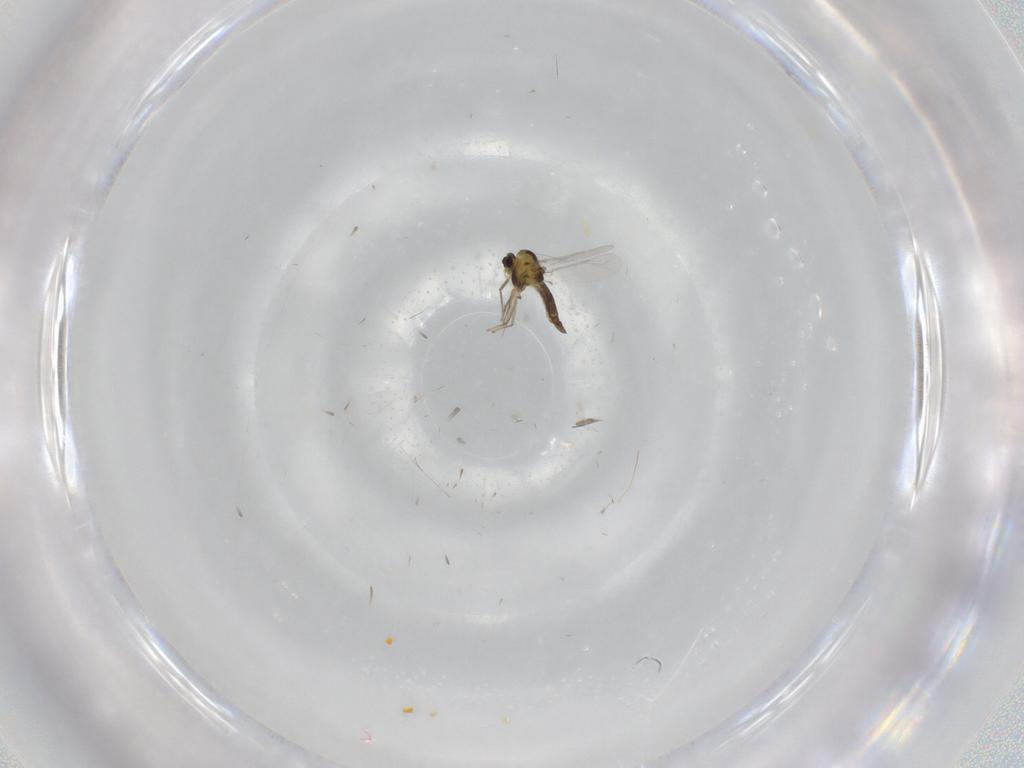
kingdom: Animalia
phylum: Arthropoda
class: Insecta
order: Diptera
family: Chironomidae
